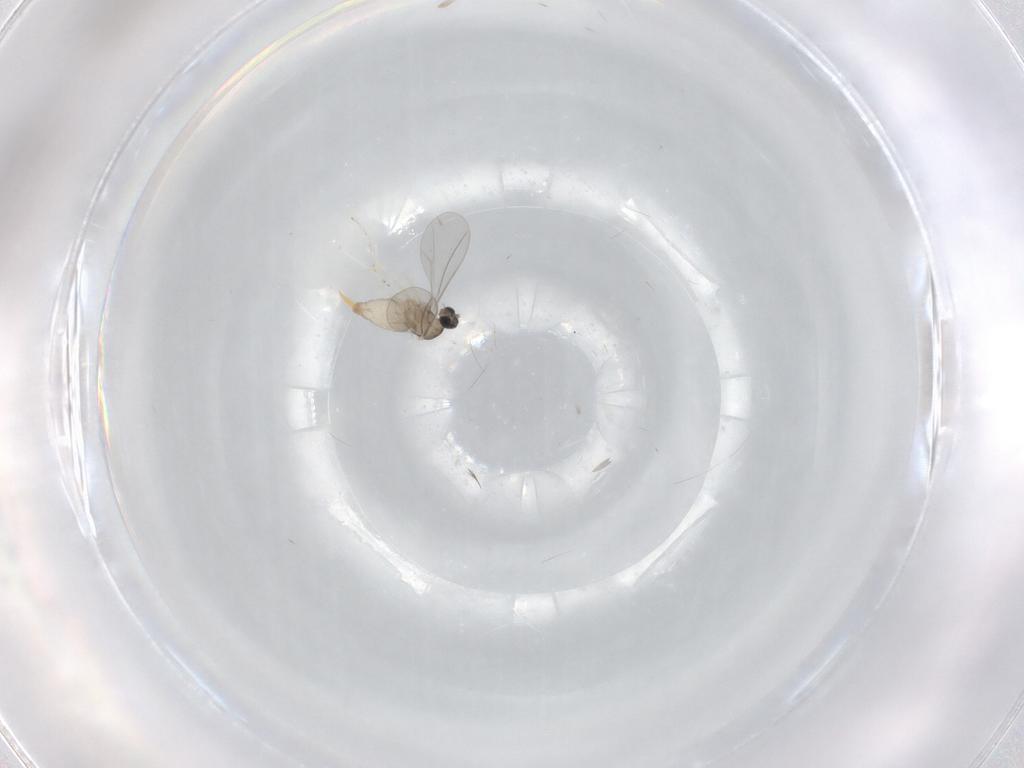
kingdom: Animalia
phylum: Arthropoda
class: Insecta
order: Diptera
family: Cecidomyiidae
